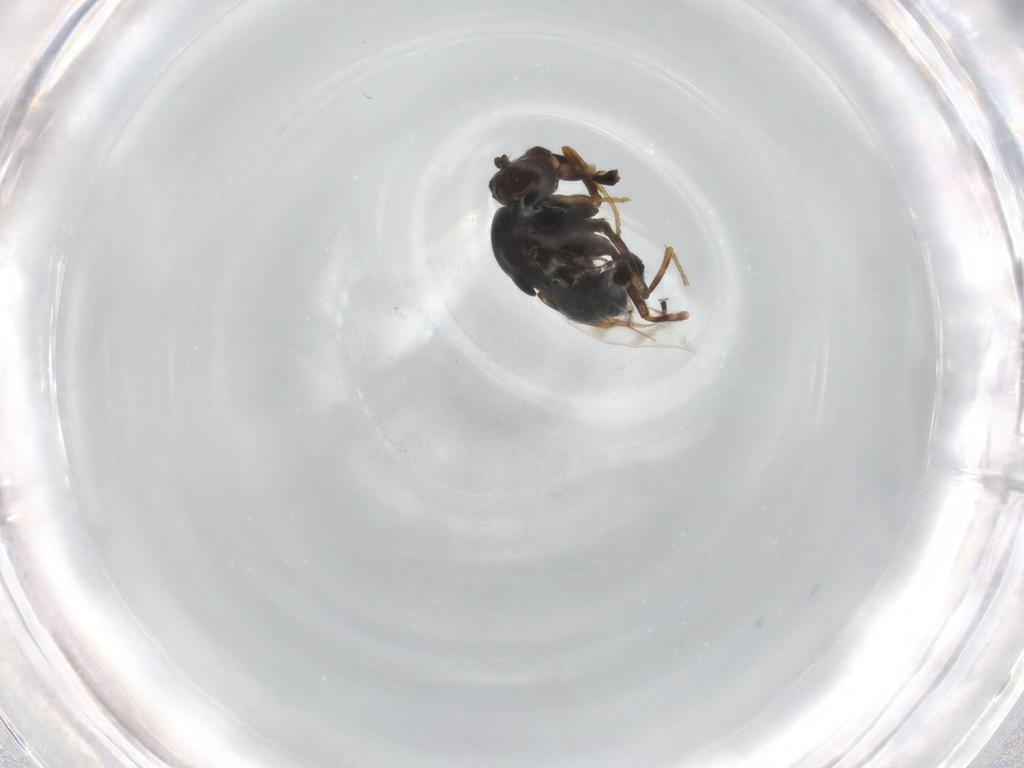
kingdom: Animalia
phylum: Arthropoda
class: Insecta
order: Diptera
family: Ephydridae
